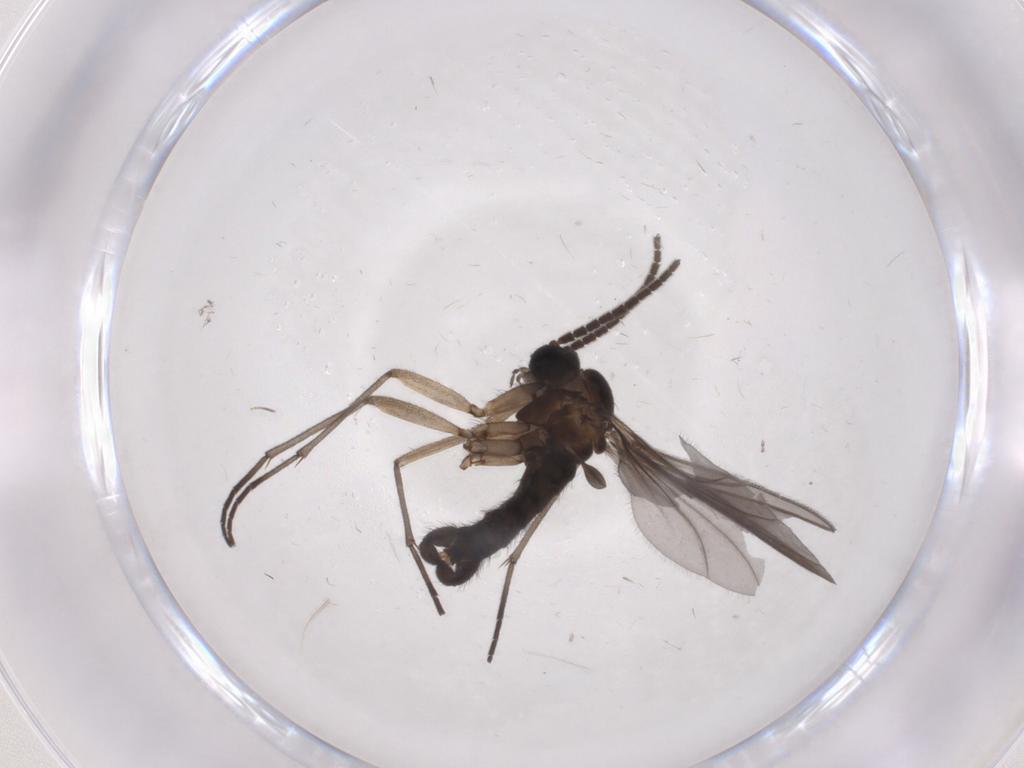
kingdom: Animalia
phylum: Arthropoda
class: Insecta
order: Diptera
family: Sciaridae
